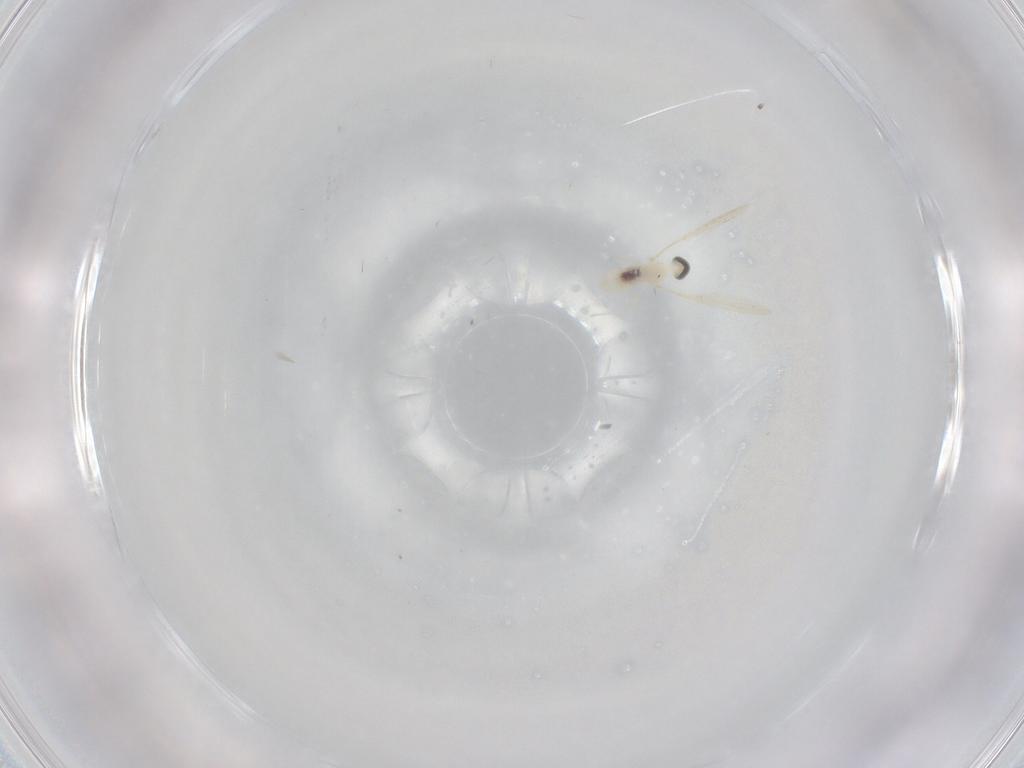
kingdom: Animalia
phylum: Arthropoda
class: Insecta
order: Diptera
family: Cecidomyiidae
